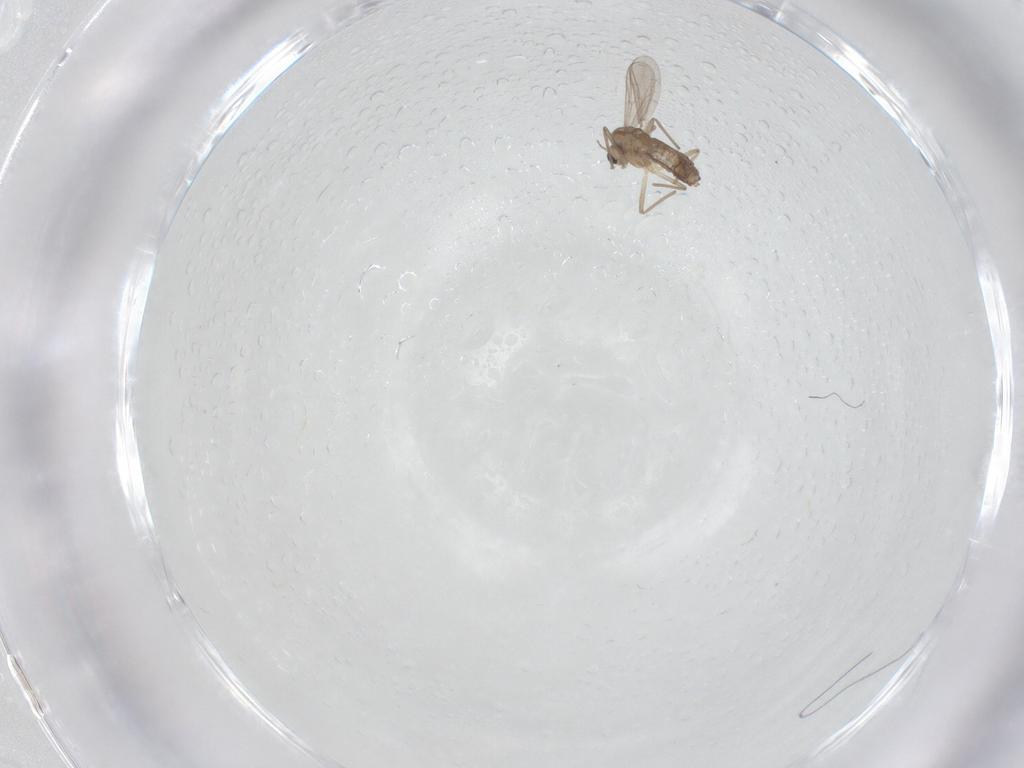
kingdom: Animalia
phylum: Arthropoda
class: Insecta
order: Diptera
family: Chironomidae
